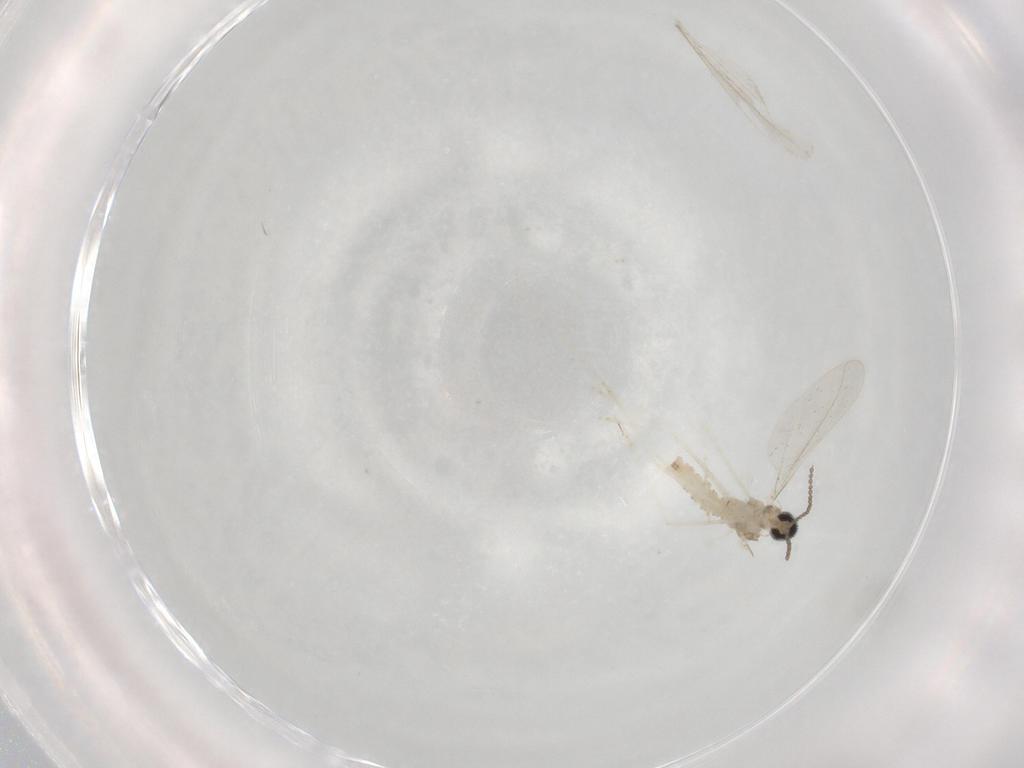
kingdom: Animalia
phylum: Arthropoda
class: Insecta
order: Diptera
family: Cecidomyiidae
